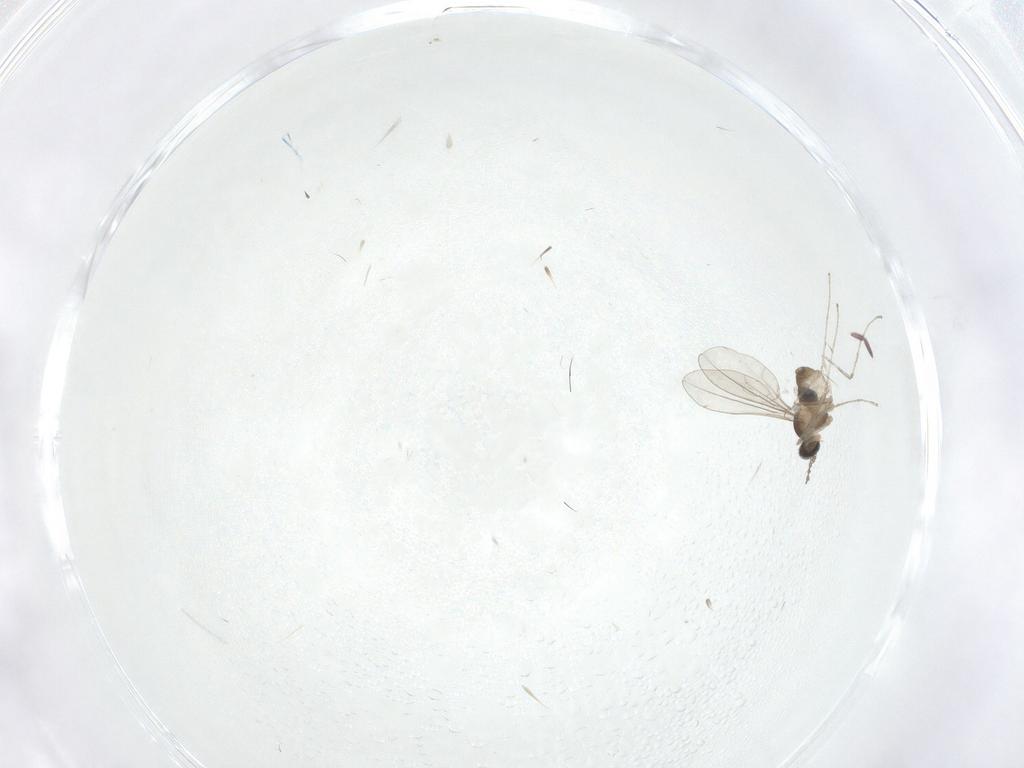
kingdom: Animalia
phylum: Arthropoda
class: Insecta
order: Diptera
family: Cecidomyiidae
